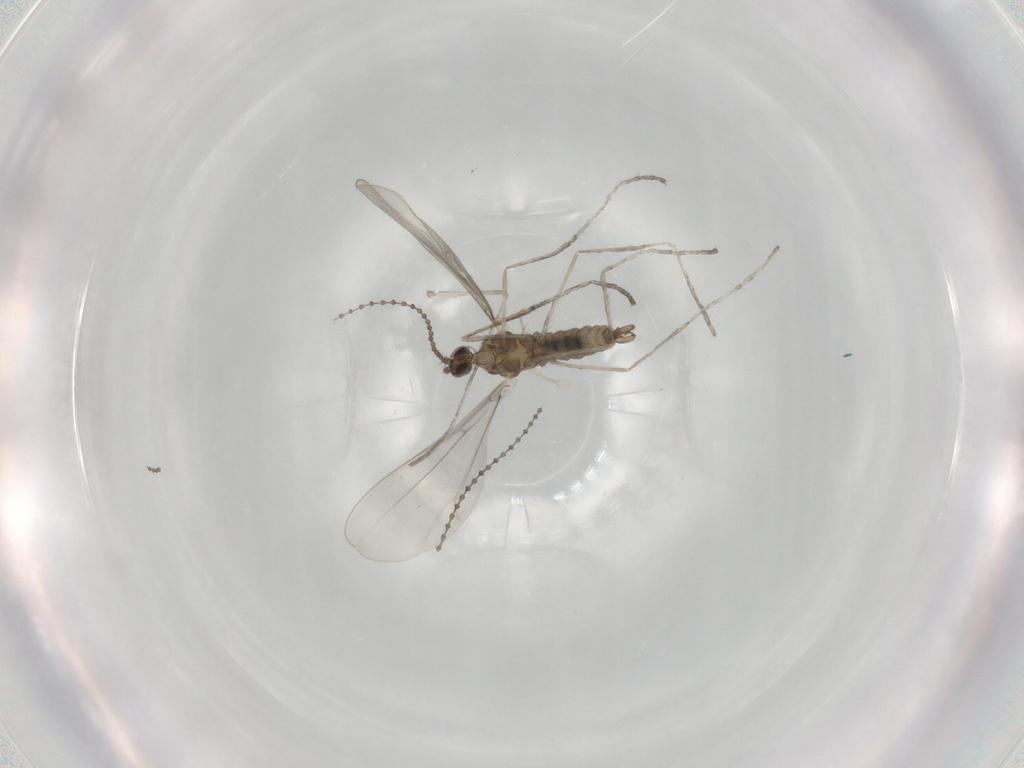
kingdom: Animalia
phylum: Arthropoda
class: Insecta
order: Diptera
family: Cecidomyiidae
